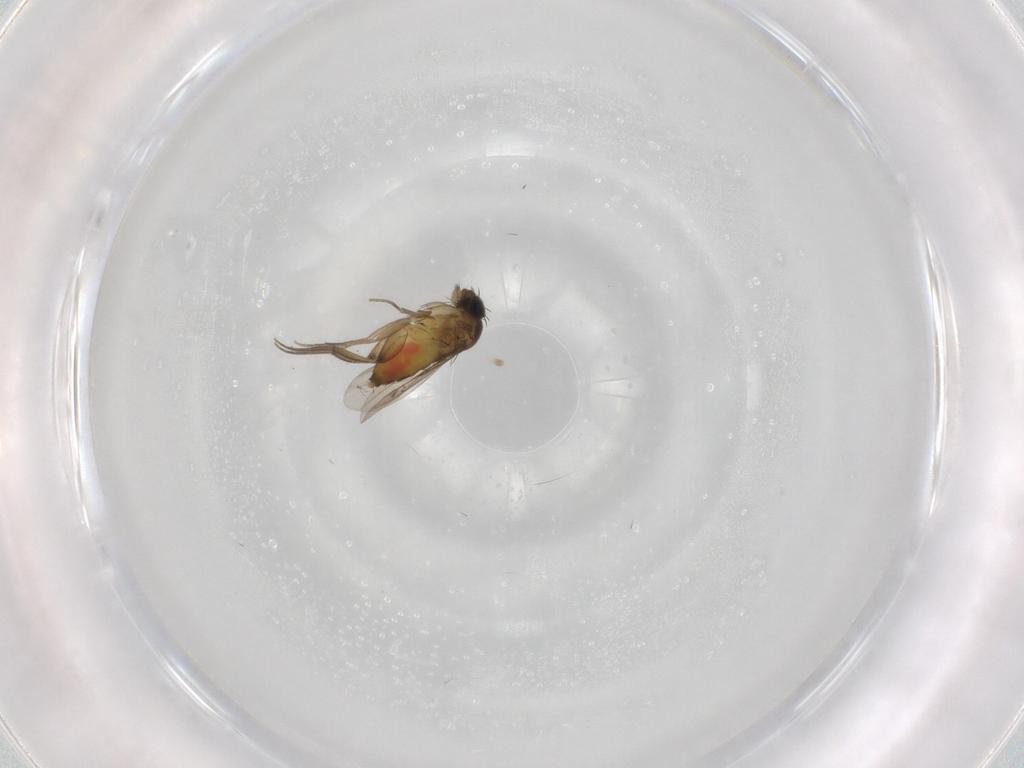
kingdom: Animalia
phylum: Arthropoda
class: Insecta
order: Diptera
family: Phoridae
